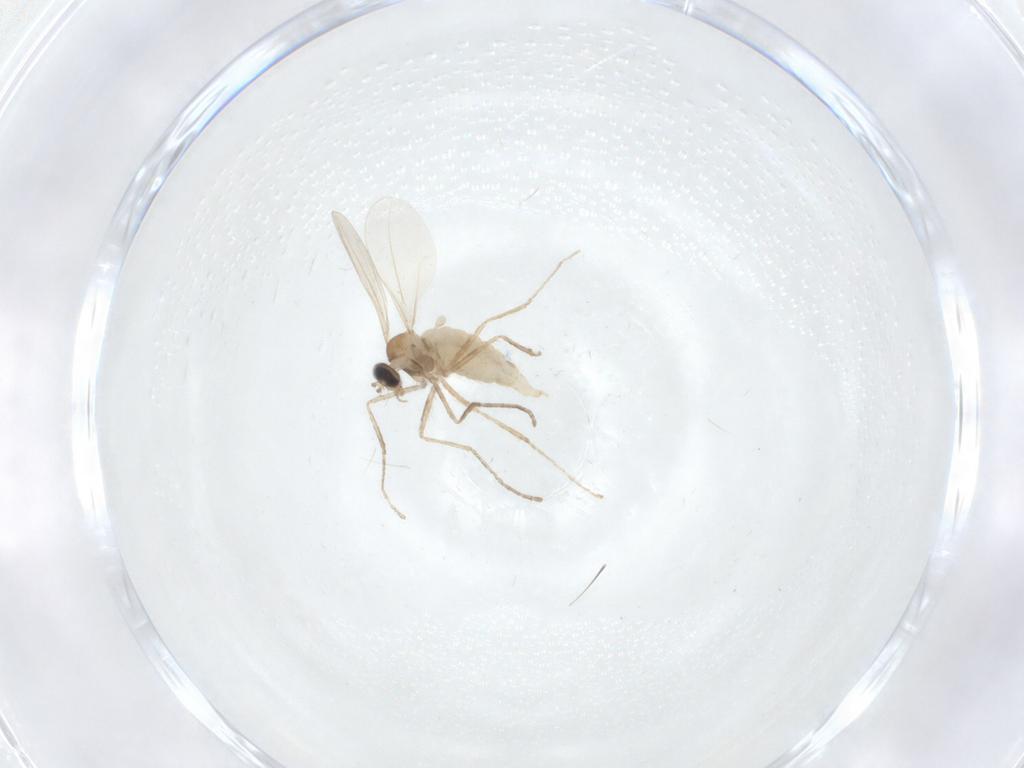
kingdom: Animalia
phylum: Arthropoda
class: Insecta
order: Diptera
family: Cecidomyiidae
